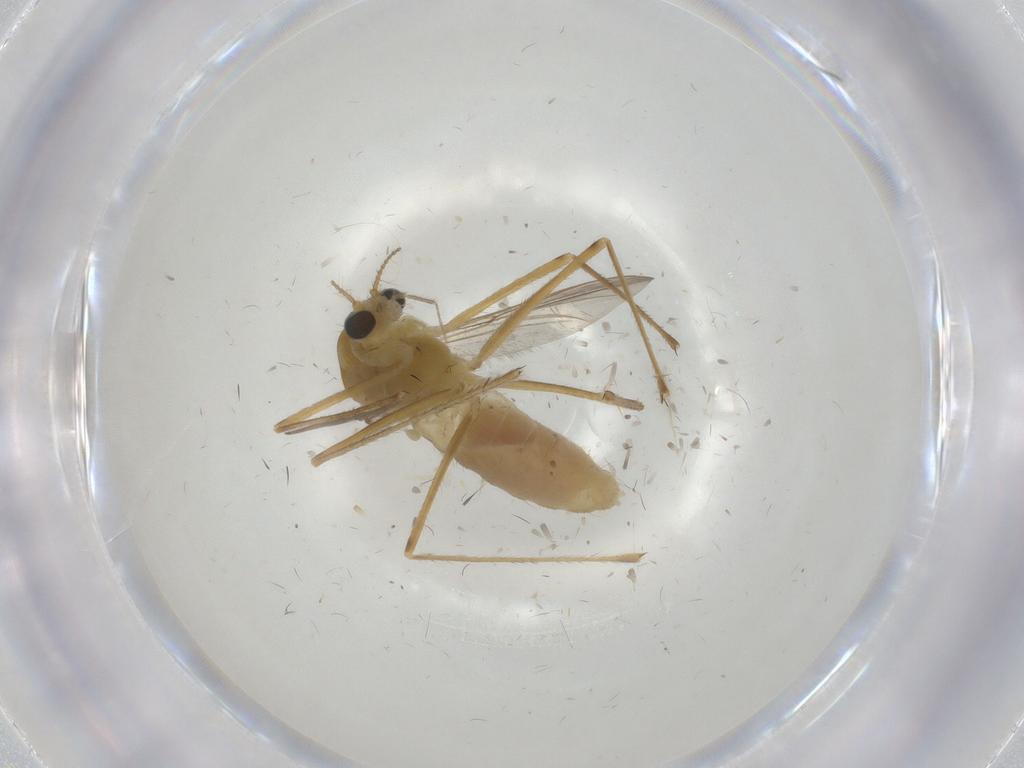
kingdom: Animalia
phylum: Arthropoda
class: Insecta
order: Diptera
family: Chironomidae
